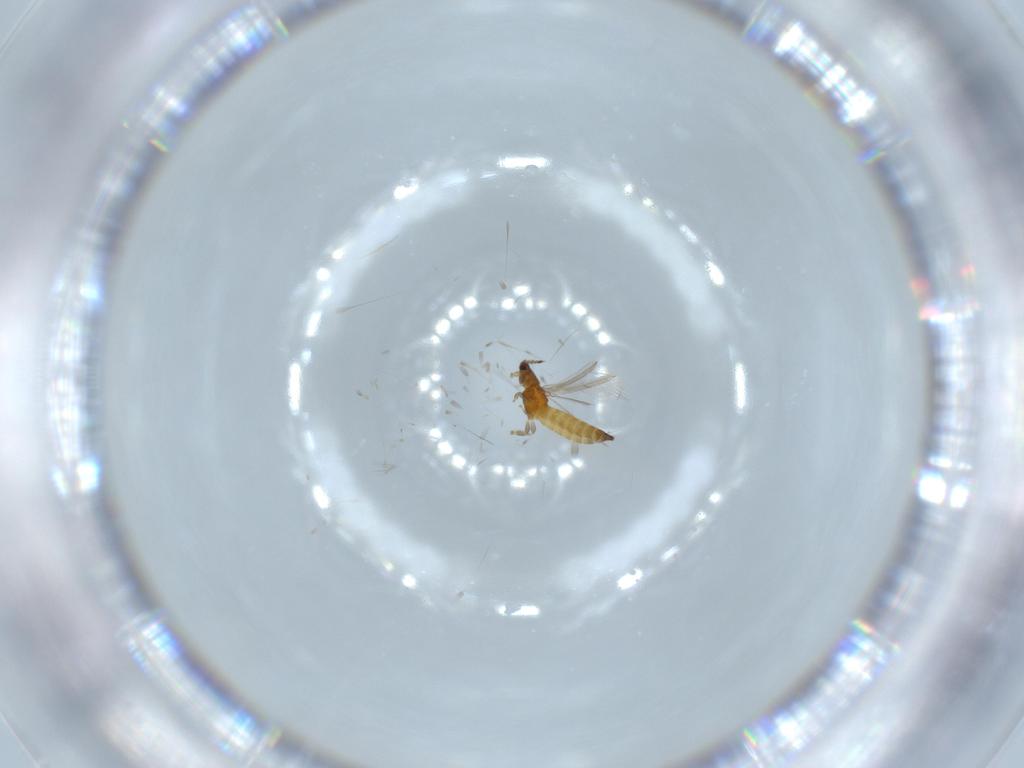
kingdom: Animalia
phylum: Arthropoda
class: Insecta
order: Thysanoptera
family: Thripidae
